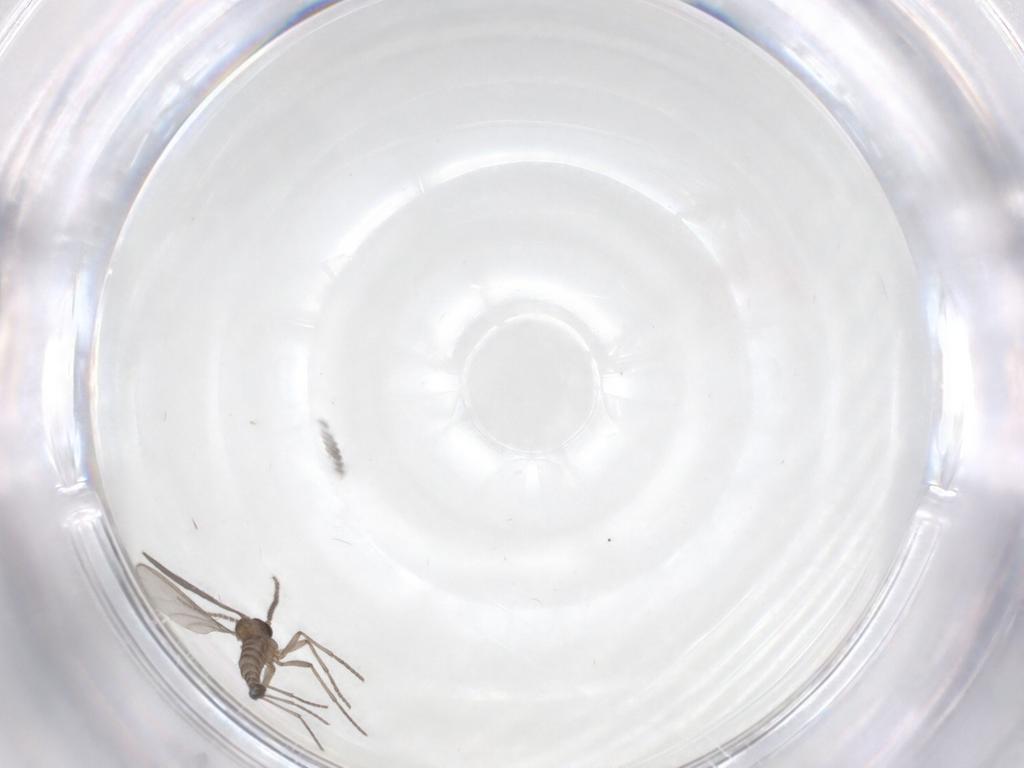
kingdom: Animalia
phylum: Arthropoda
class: Insecta
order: Diptera
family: Sciaridae
